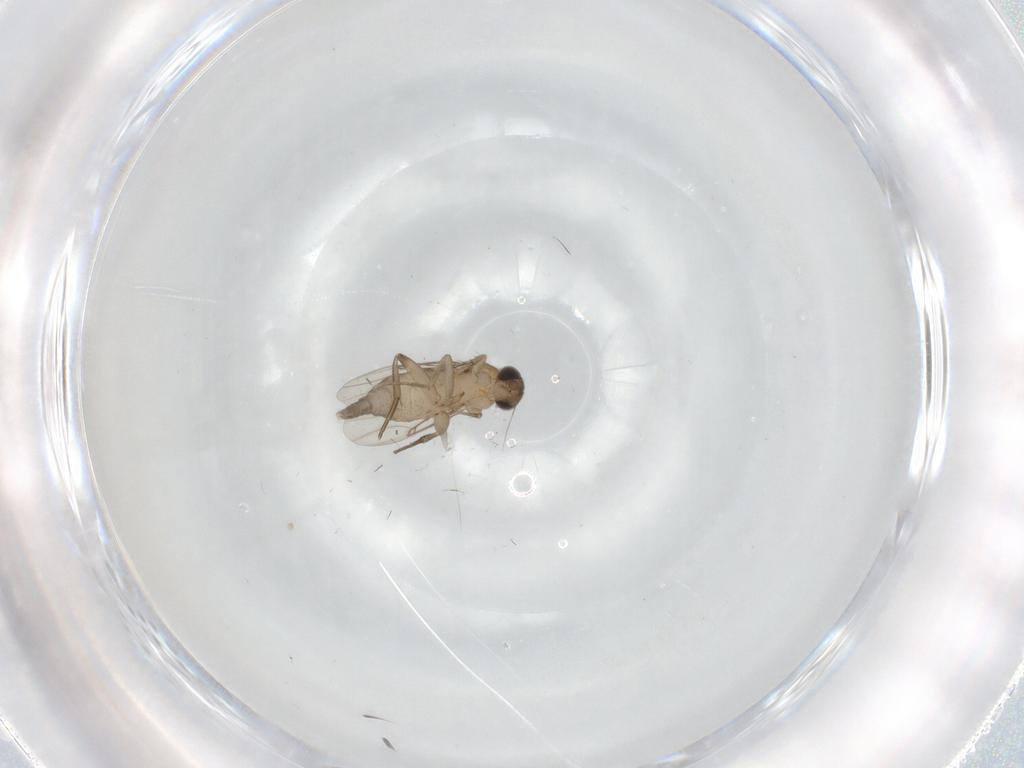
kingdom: Animalia
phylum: Arthropoda
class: Insecta
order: Diptera
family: Phoridae
